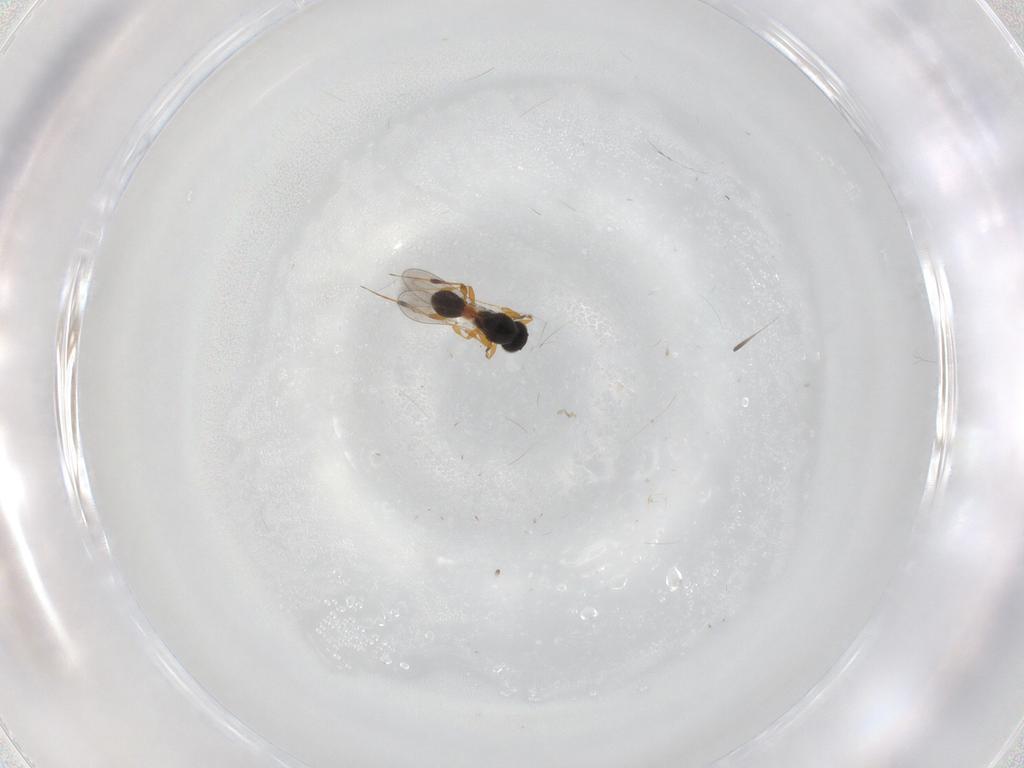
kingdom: Animalia
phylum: Arthropoda
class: Insecta
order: Hymenoptera
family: Platygastridae
